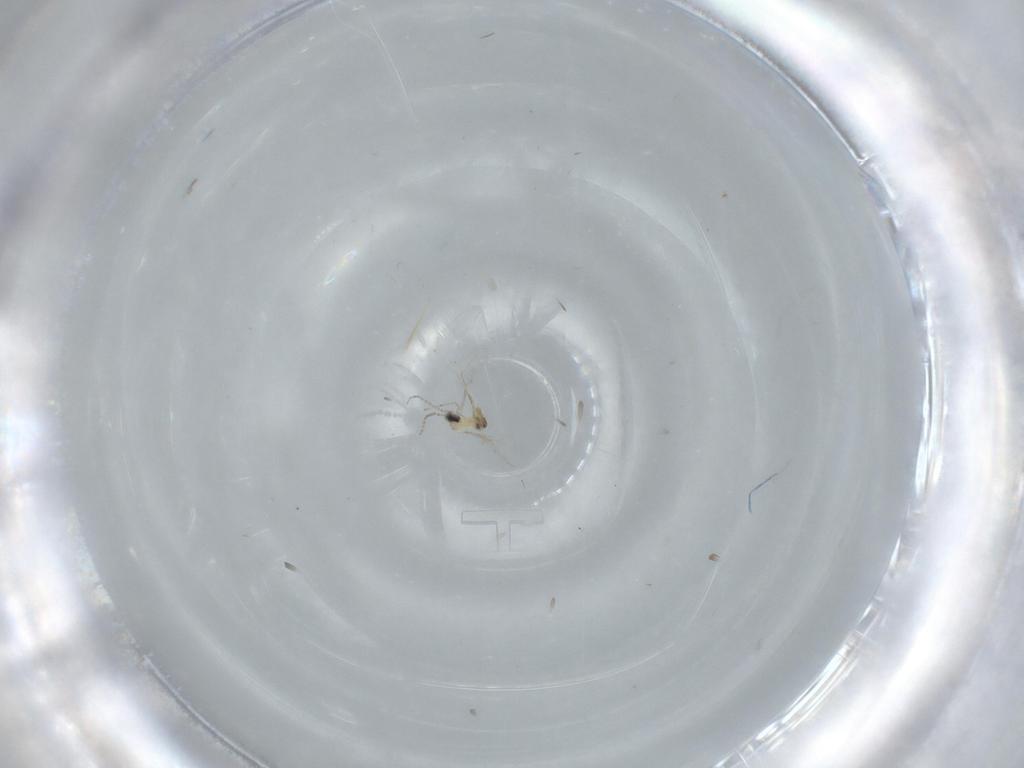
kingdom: Animalia
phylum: Arthropoda
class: Insecta
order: Diptera
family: Cecidomyiidae
